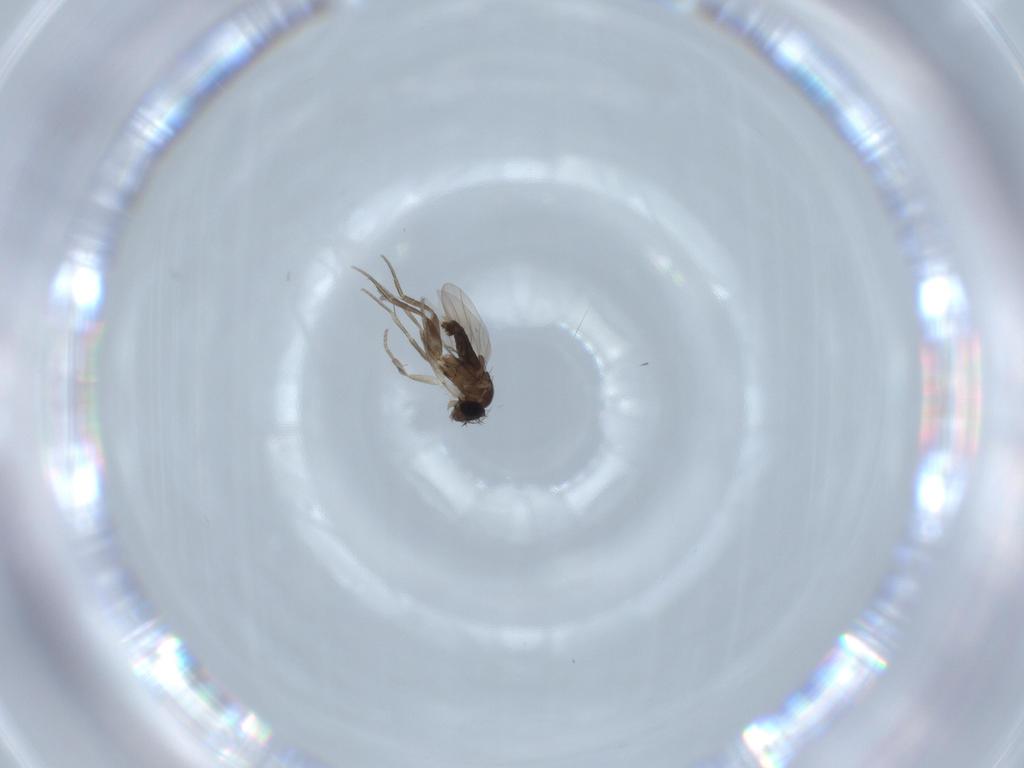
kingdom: Animalia
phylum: Arthropoda
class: Insecta
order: Diptera
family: Phoridae
